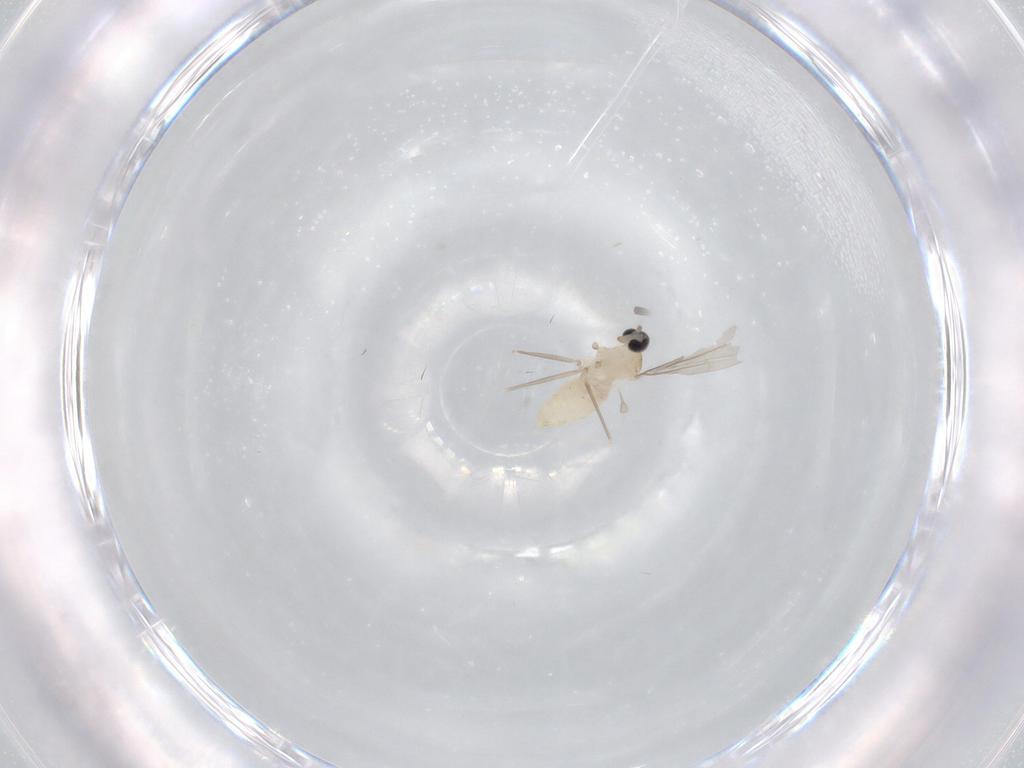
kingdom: Animalia
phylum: Arthropoda
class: Insecta
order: Diptera
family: Cecidomyiidae
